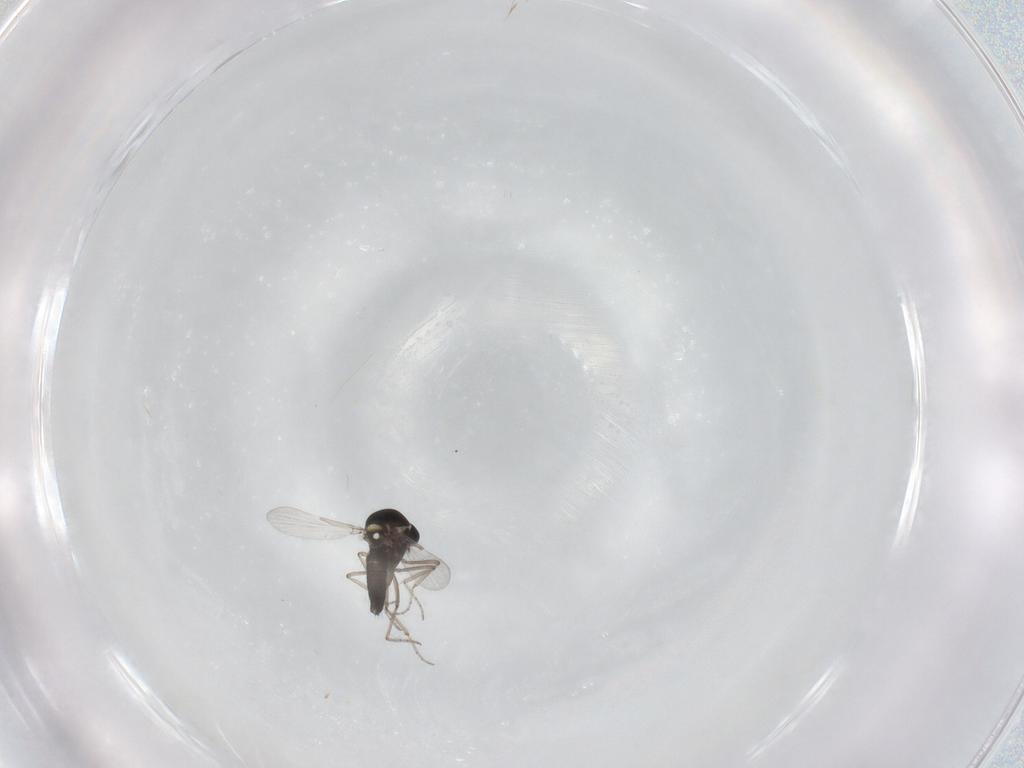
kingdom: Animalia
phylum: Arthropoda
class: Insecta
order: Diptera
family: Ceratopogonidae
